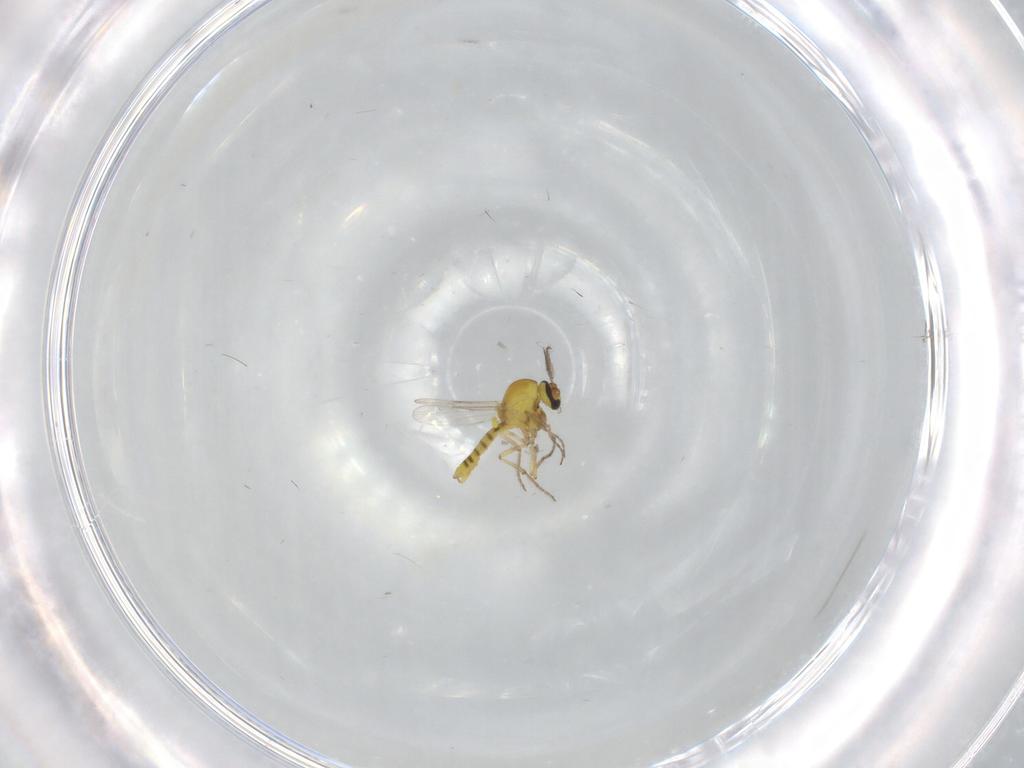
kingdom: Animalia
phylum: Arthropoda
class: Insecta
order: Diptera
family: Ceratopogonidae
